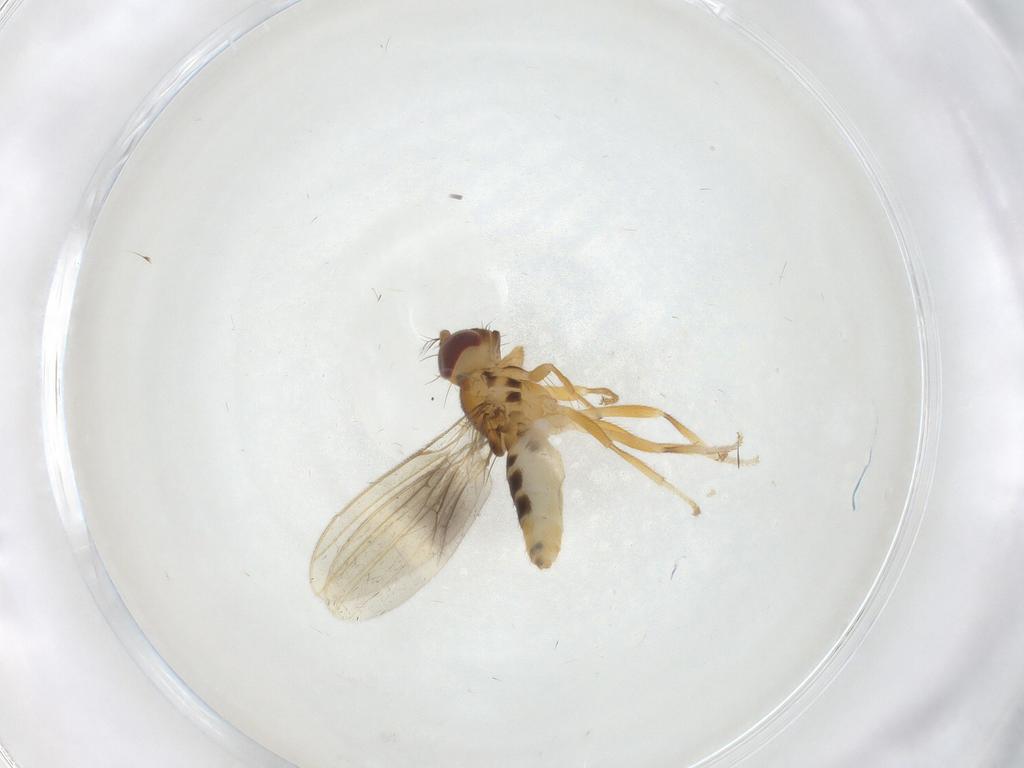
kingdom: Animalia
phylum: Arthropoda
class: Insecta
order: Diptera
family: Periscelididae
